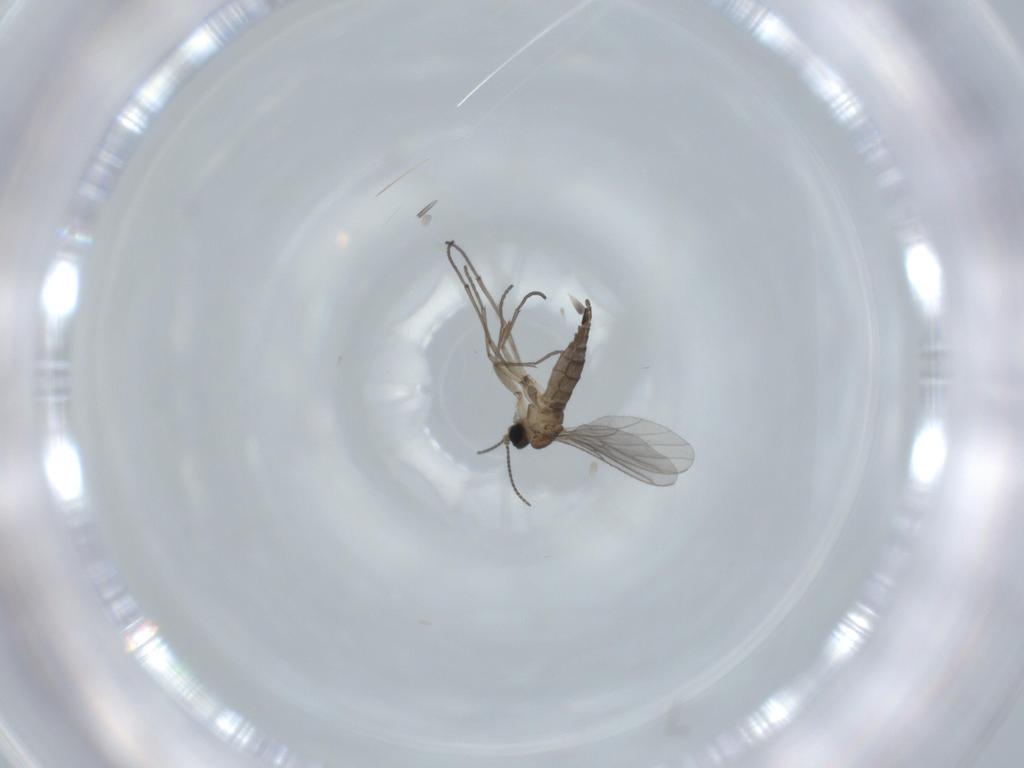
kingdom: Animalia
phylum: Arthropoda
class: Insecta
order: Diptera
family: Sciaridae
